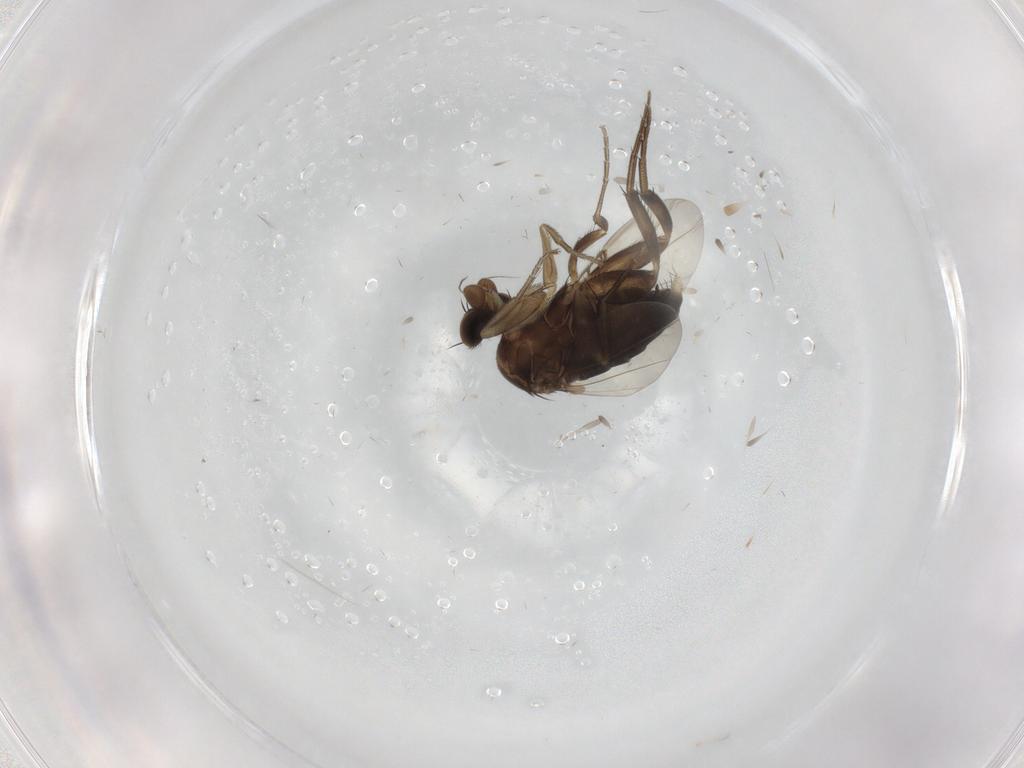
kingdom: Animalia
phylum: Arthropoda
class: Insecta
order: Diptera
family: Phoridae
